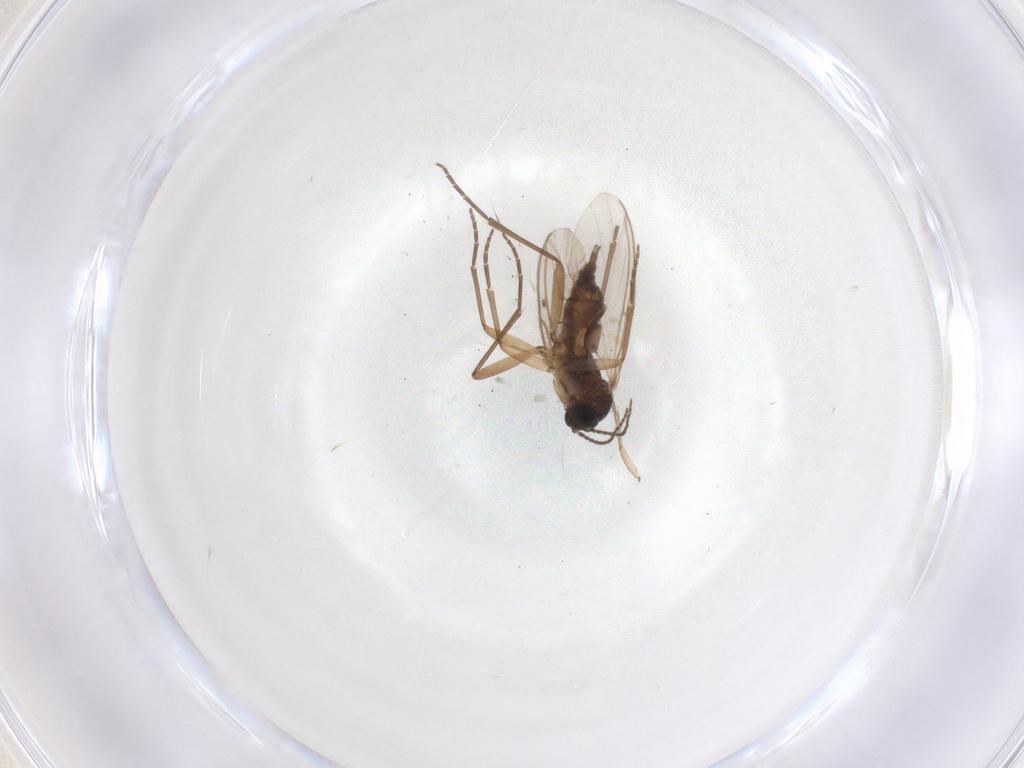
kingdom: Animalia
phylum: Arthropoda
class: Insecta
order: Diptera
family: Sciaridae
